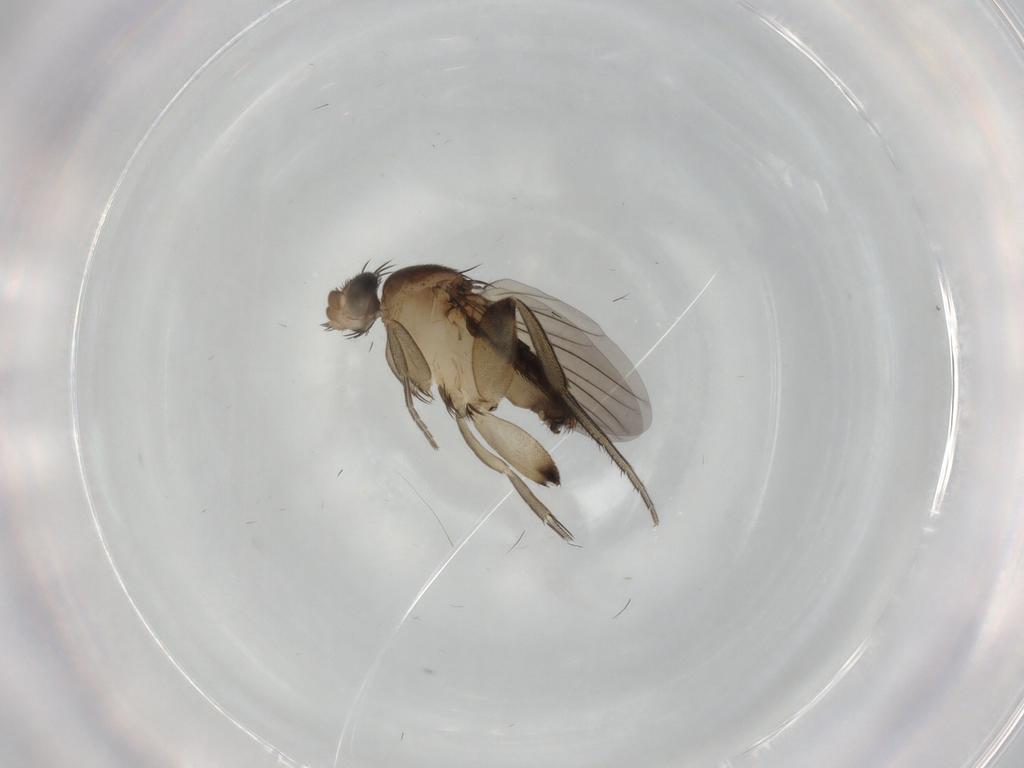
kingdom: Animalia
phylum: Arthropoda
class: Insecta
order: Diptera
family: Phoridae
